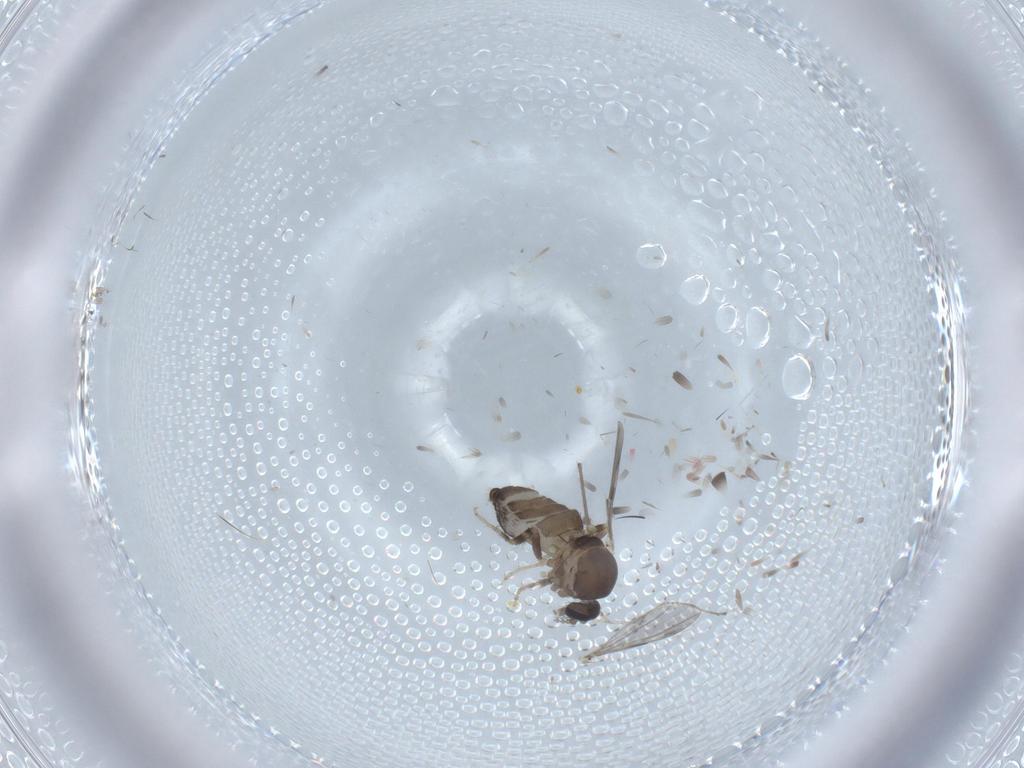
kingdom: Animalia
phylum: Arthropoda
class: Insecta
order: Diptera
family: Ceratopogonidae
